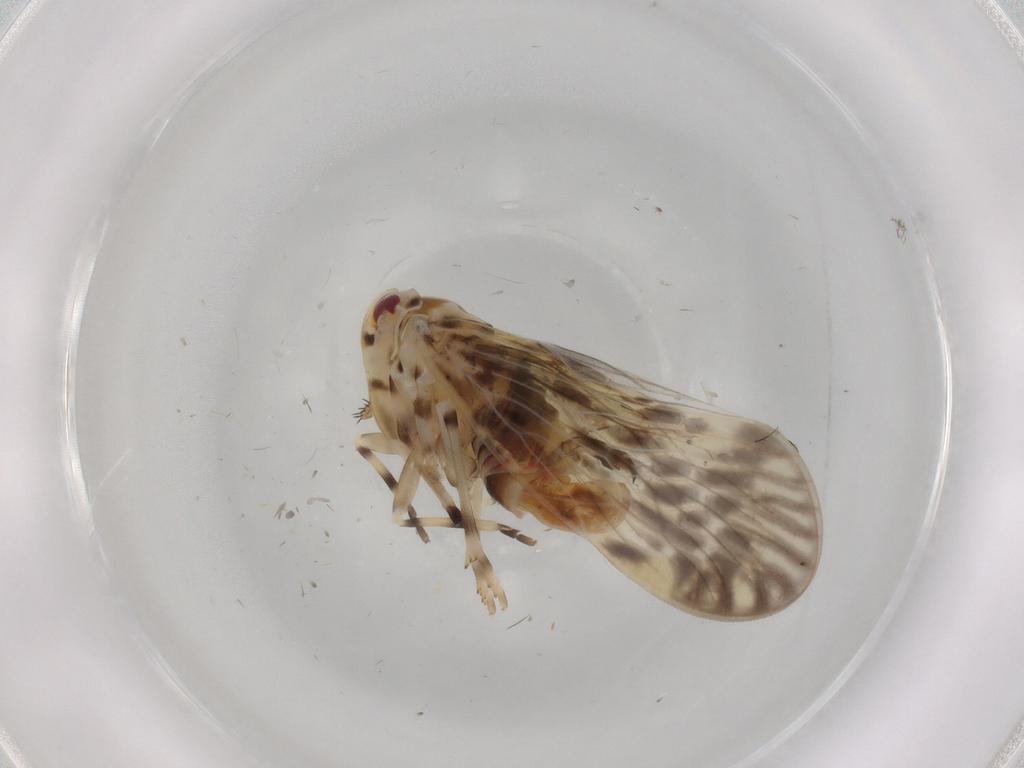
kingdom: Animalia
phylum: Arthropoda
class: Insecta
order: Hemiptera
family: Derbidae
